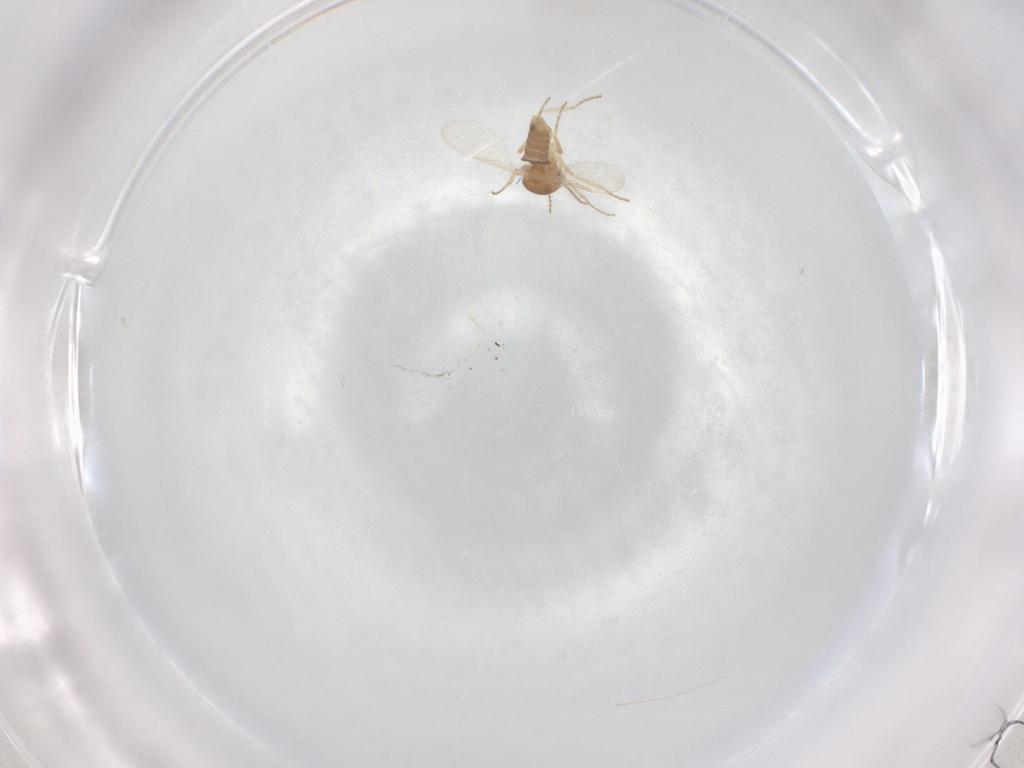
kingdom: Animalia
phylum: Arthropoda
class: Insecta
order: Diptera
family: Ceratopogonidae
